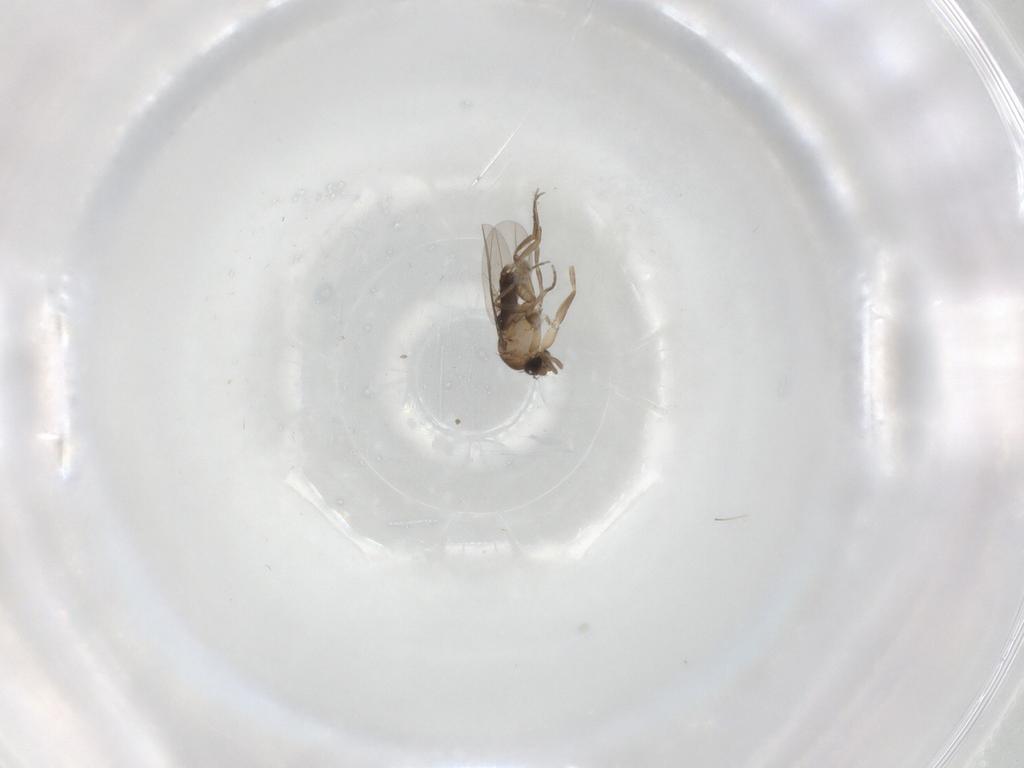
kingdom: Animalia
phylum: Arthropoda
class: Insecta
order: Diptera
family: Phoridae
